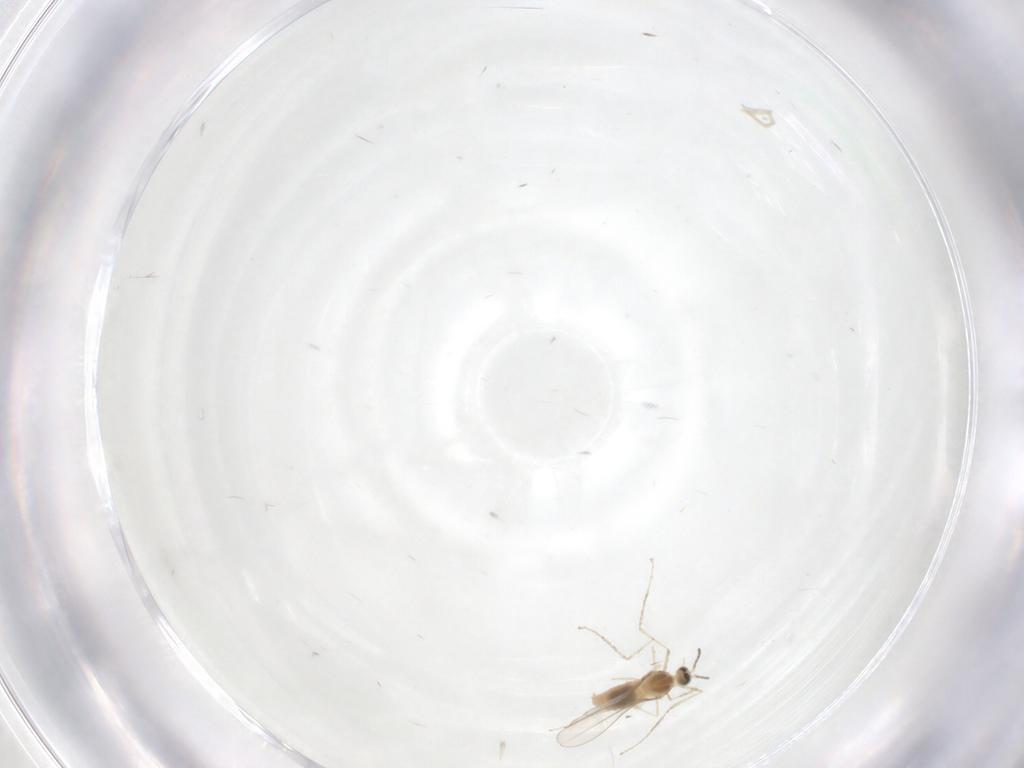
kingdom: Animalia
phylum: Arthropoda
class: Insecta
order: Diptera
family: Cecidomyiidae
